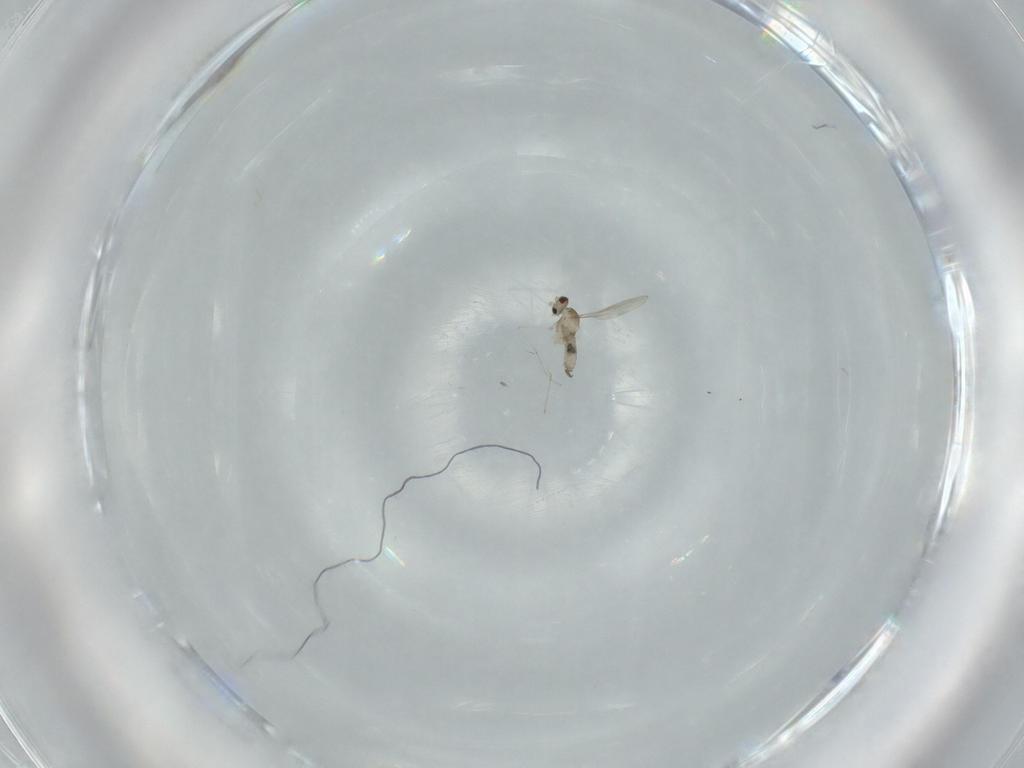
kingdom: Animalia
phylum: Arthropoda
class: Insecta
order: Diptera
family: Cecidomyiidae
